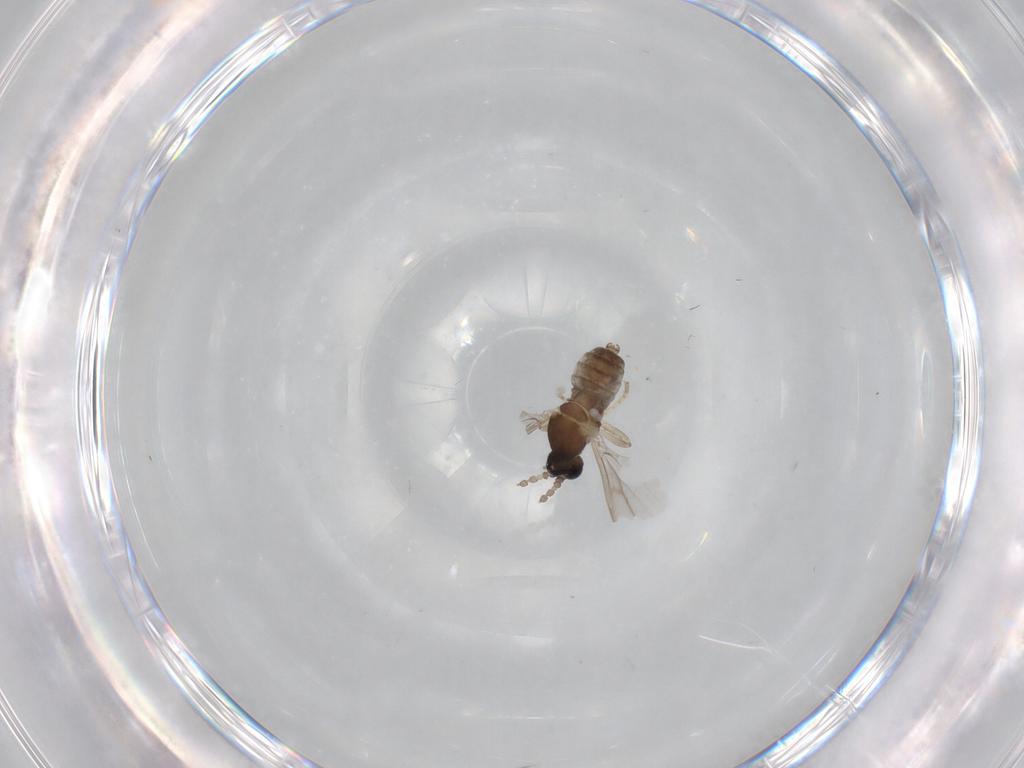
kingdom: Animalia
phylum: Arthropoda
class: Insecta
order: Diptera
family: Cecidomyiidae
